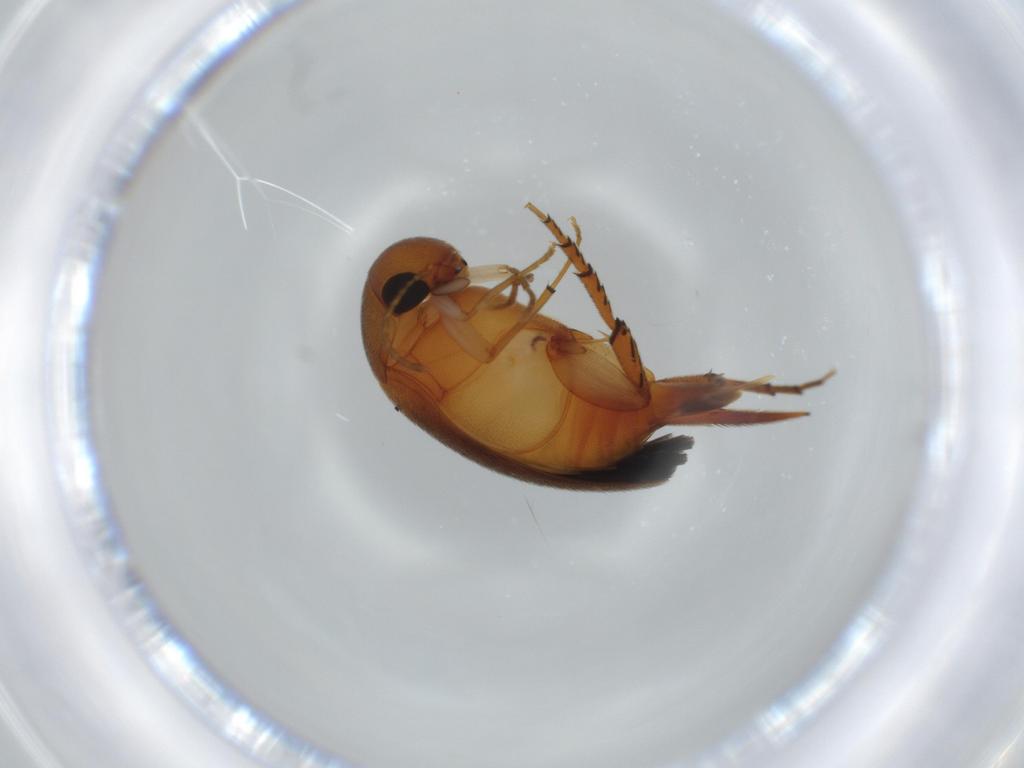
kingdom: Animalia
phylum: Arthropoda
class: Insecta
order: Coleoptera
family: Mordellidae
